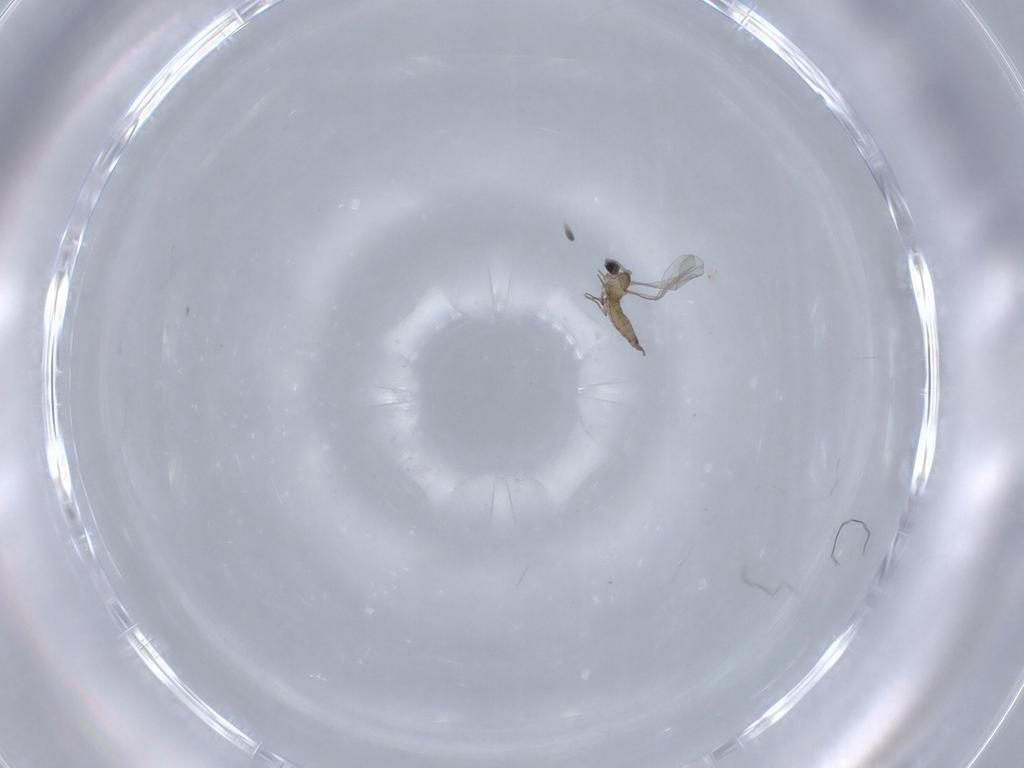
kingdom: Animalia
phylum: Arthropoda
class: Insecta
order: Diptera
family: Cecidomyiidae
